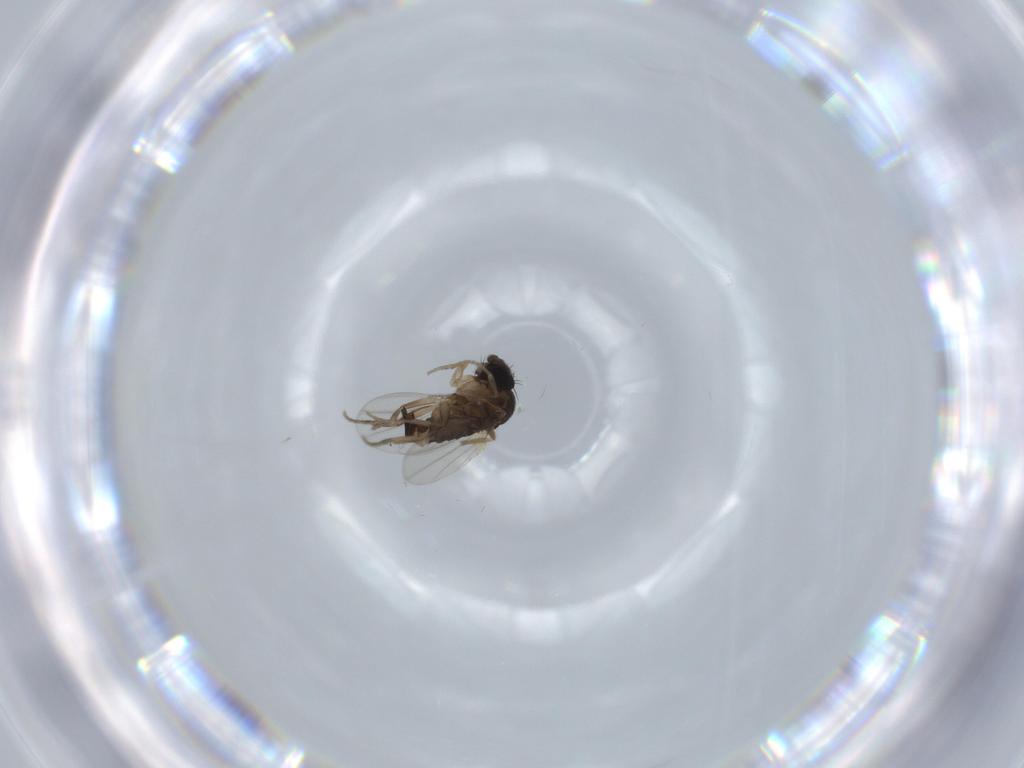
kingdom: Animalia
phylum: Arthropoda
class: Insecta
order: Diptera
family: Phoridae
